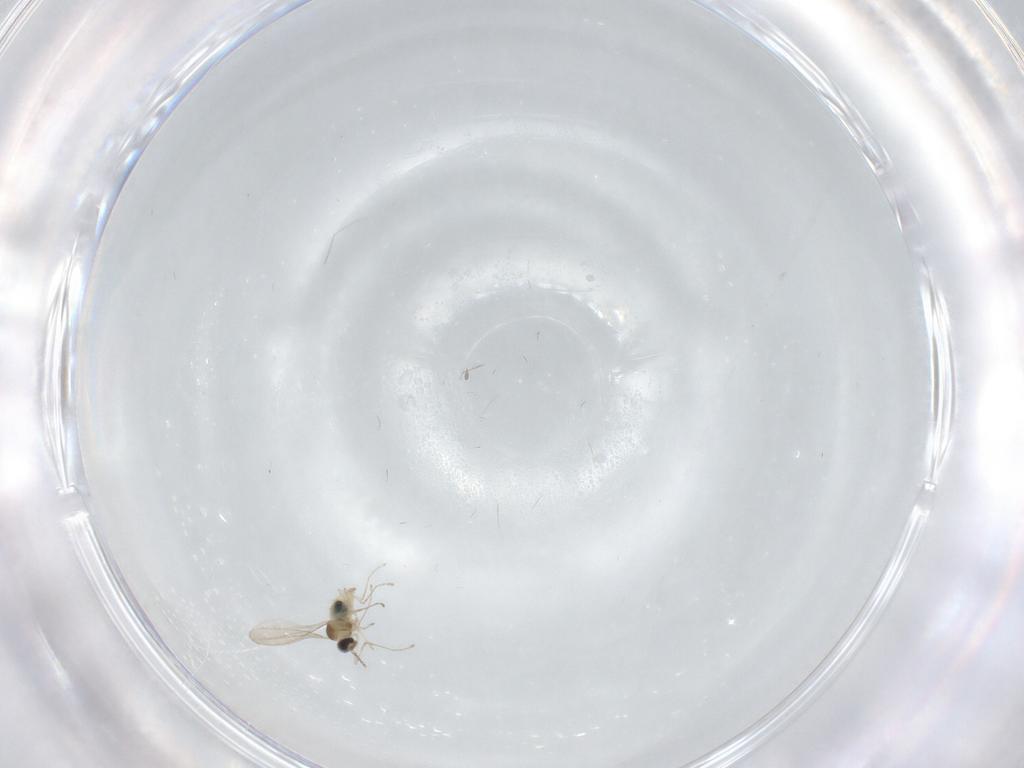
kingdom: Animalia
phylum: Arthropoda
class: Insecta
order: Diptera
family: Cecidomyiidae
